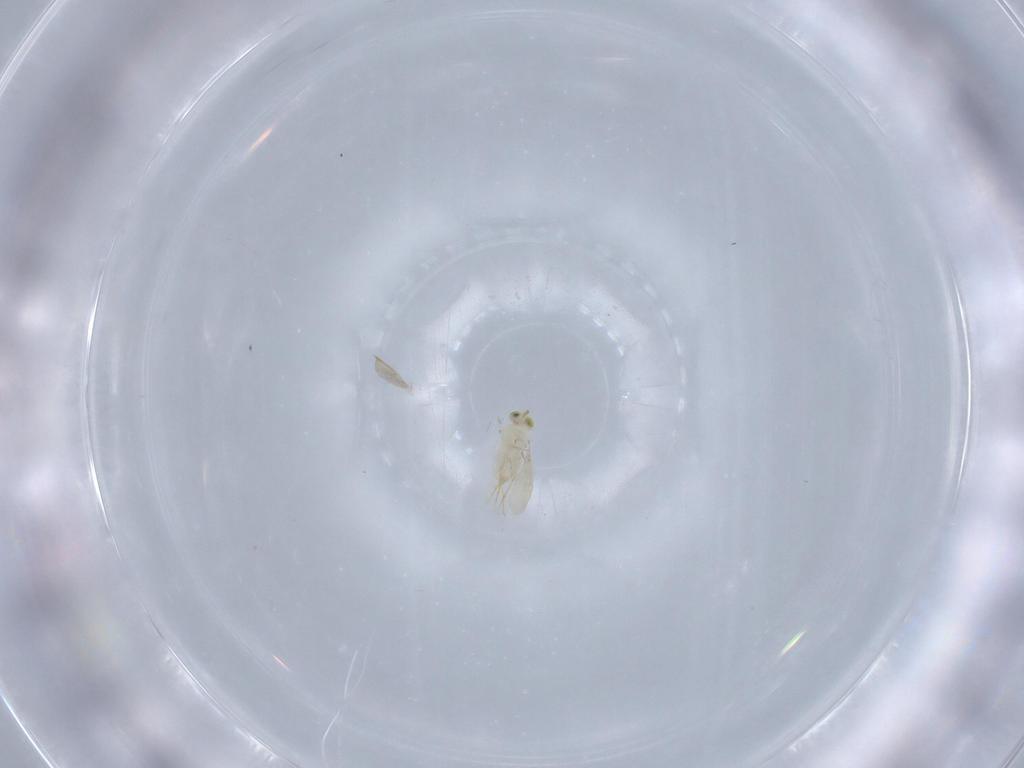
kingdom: Animalia
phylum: Arthropoda
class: Insecta
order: Hymenoptera
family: Aphelinidae
